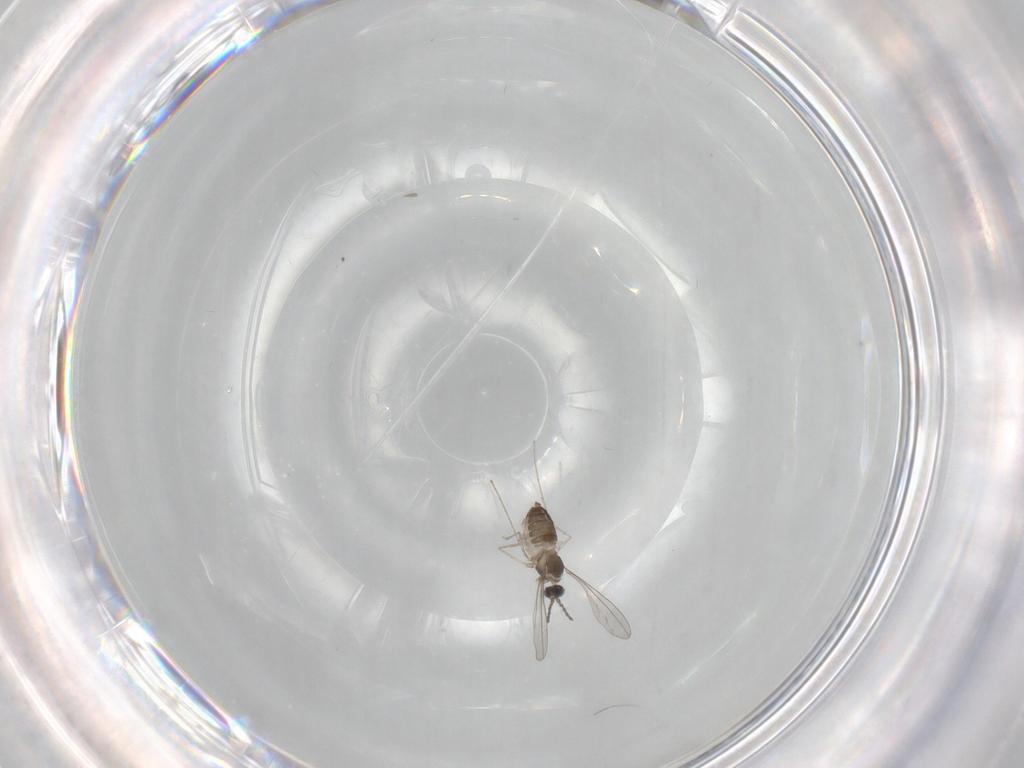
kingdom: Animalia
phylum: Arthropoda
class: Insecta
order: Diptera
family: Cecidomyiidae
